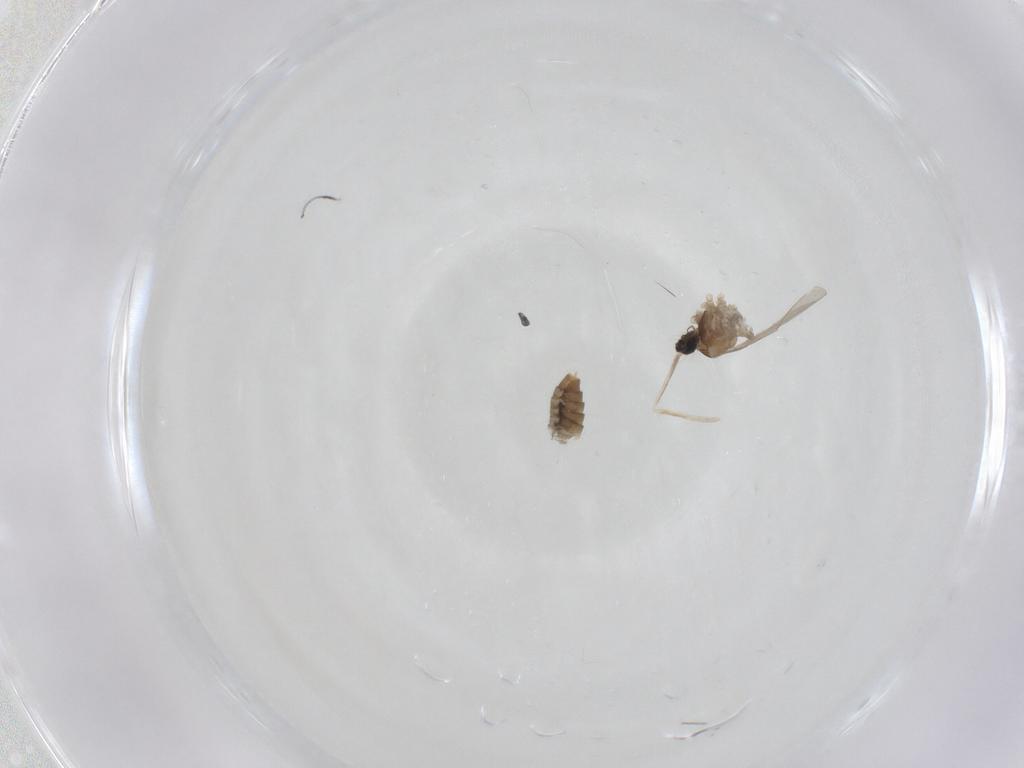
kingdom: Animalia
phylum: Arthropoda
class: Insecta
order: Diptera
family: Cecidomyiidae
